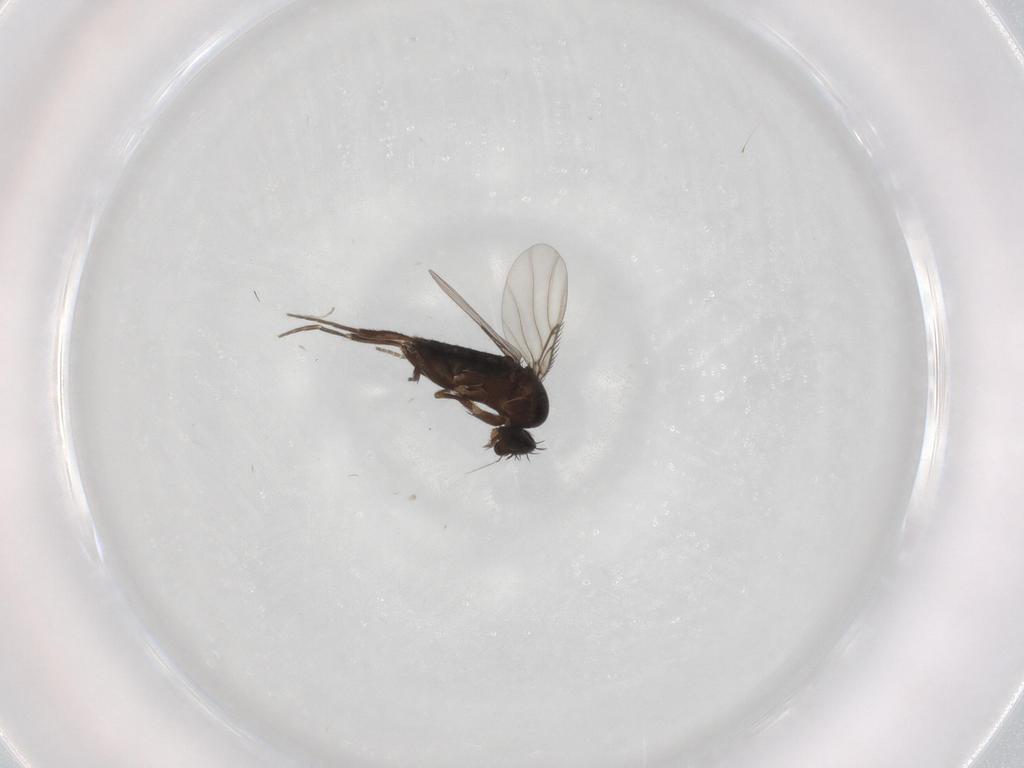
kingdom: Animalia
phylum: Arthropoda
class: Insecta
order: Diptera
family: Phoridae
